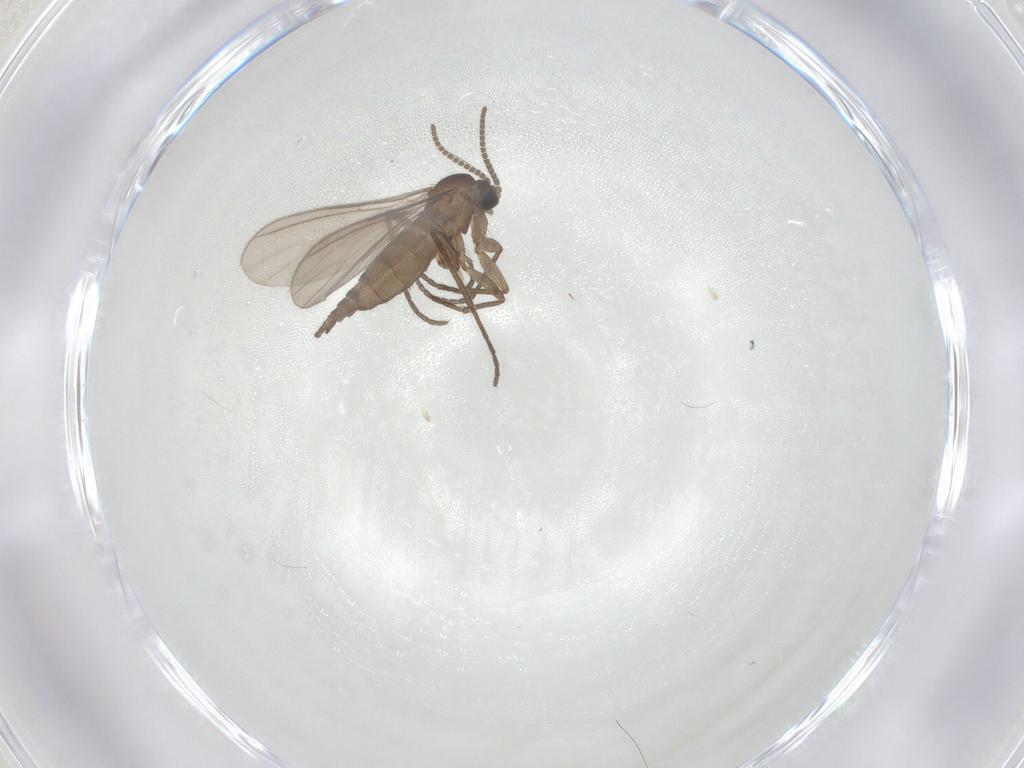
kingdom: Animalia
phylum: Arthropoda
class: Insecta
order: Diptera
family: Sciaridae
